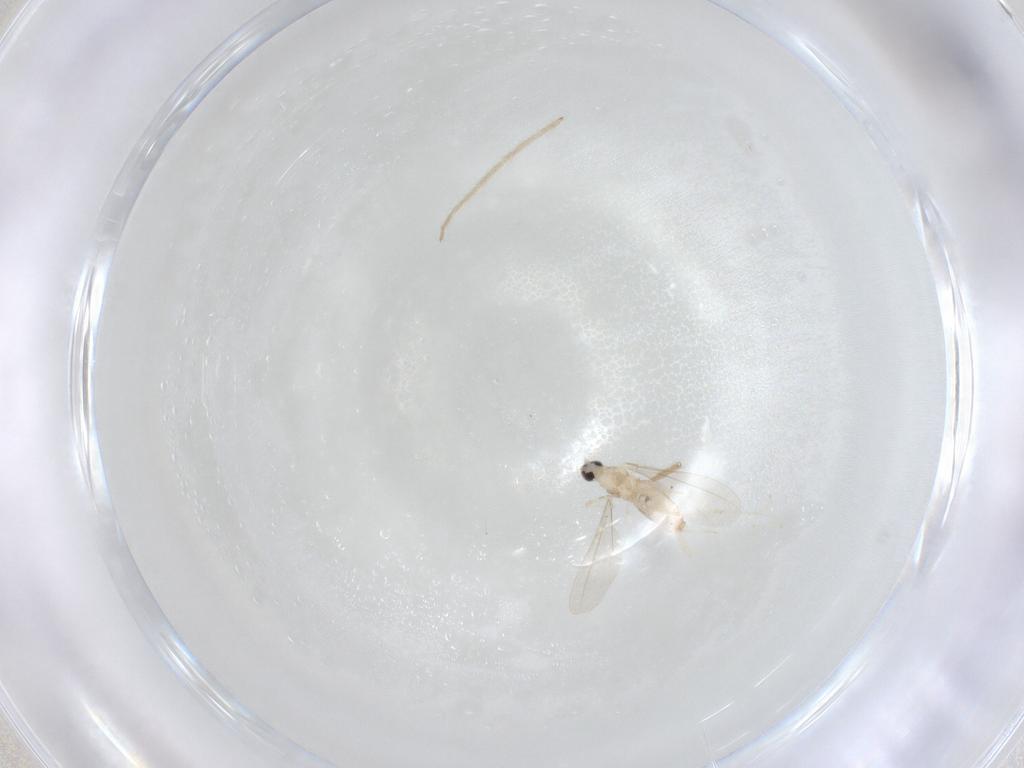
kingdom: Animalia
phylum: Arthropoda
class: Insecta
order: Diptera
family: Cecidomyiidae
